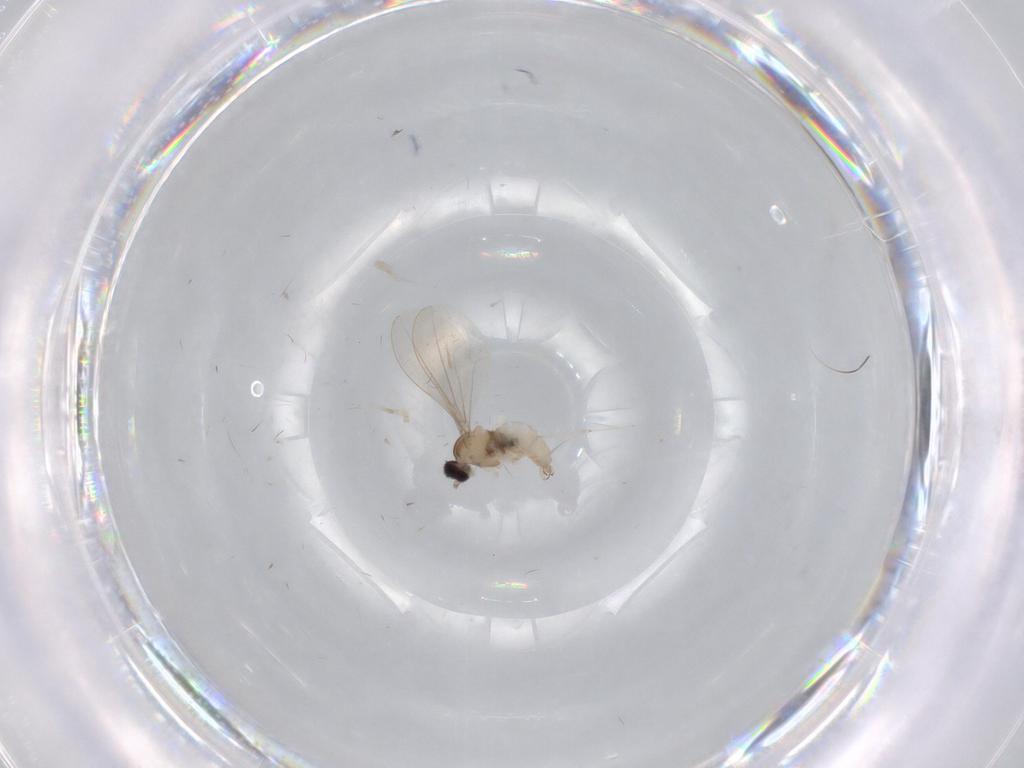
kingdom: Animalia
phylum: Arthropoda
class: Insecta
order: Diptera
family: Cecidomyiidae
